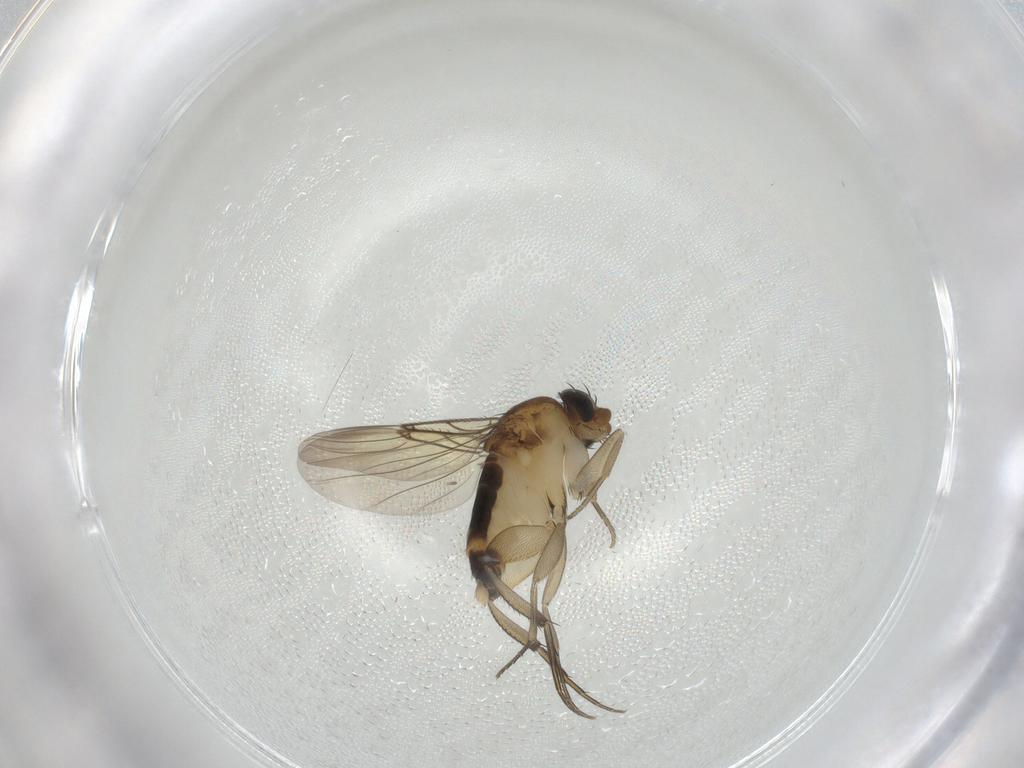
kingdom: Animalia
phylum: Arthropoda
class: Insecta
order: Diptera
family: Phoridae
